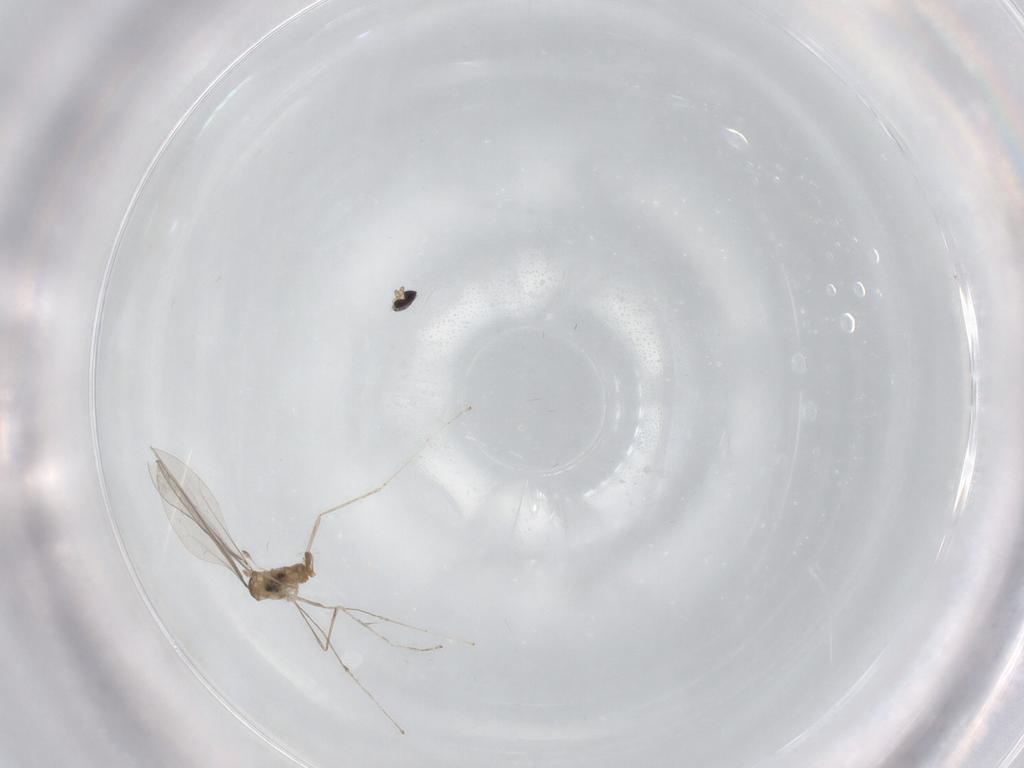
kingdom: Animalia
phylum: Arthropoda
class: Insecta
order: Diptera
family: Cecidomyiidae
